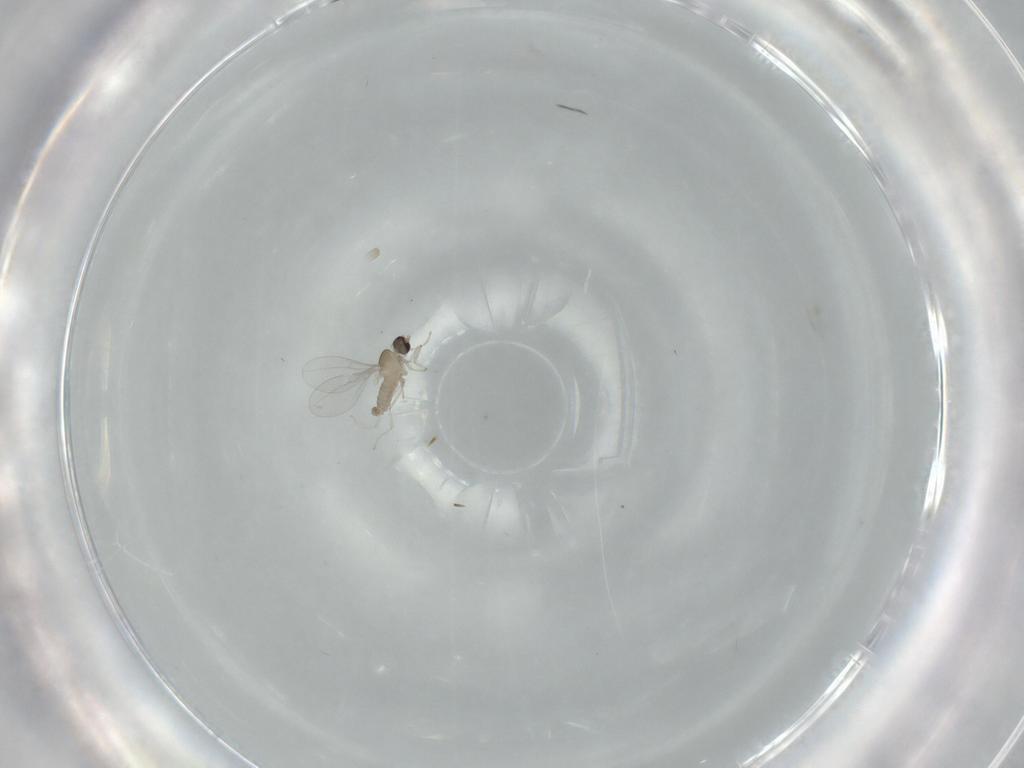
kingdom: Animalia
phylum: Arthropoda
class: Insecta
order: Diptera
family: Cecidomyiidae
